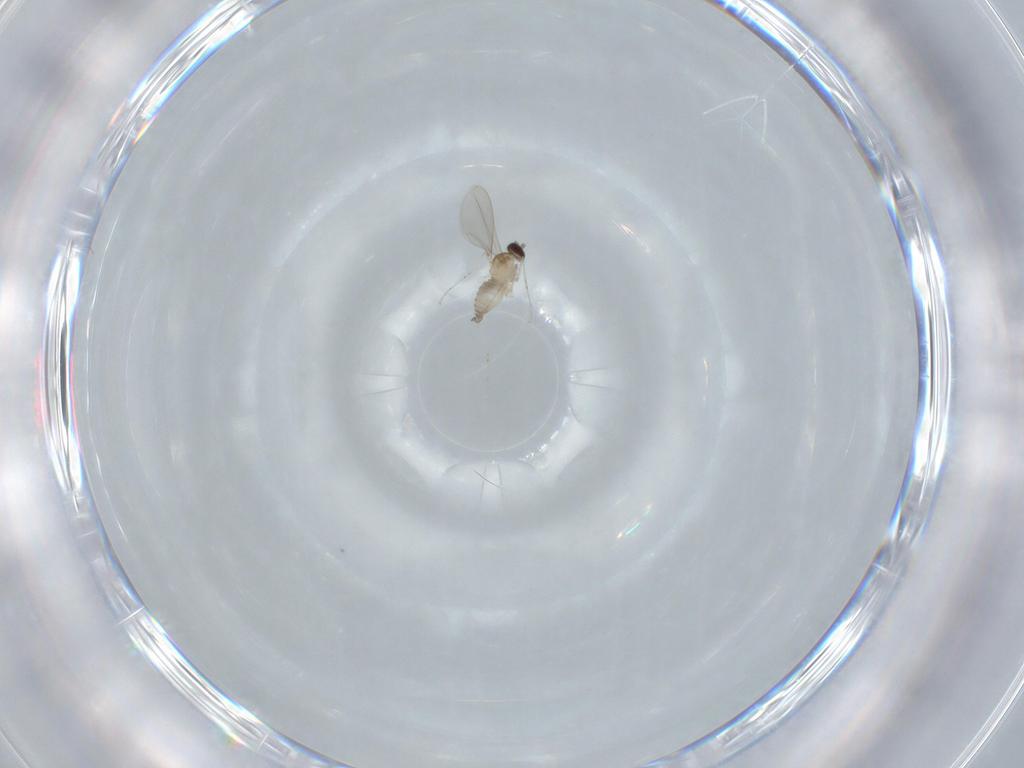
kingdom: Animalia
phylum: Arthropoda
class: Insecta
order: Diptera
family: Cecidomyiidae
